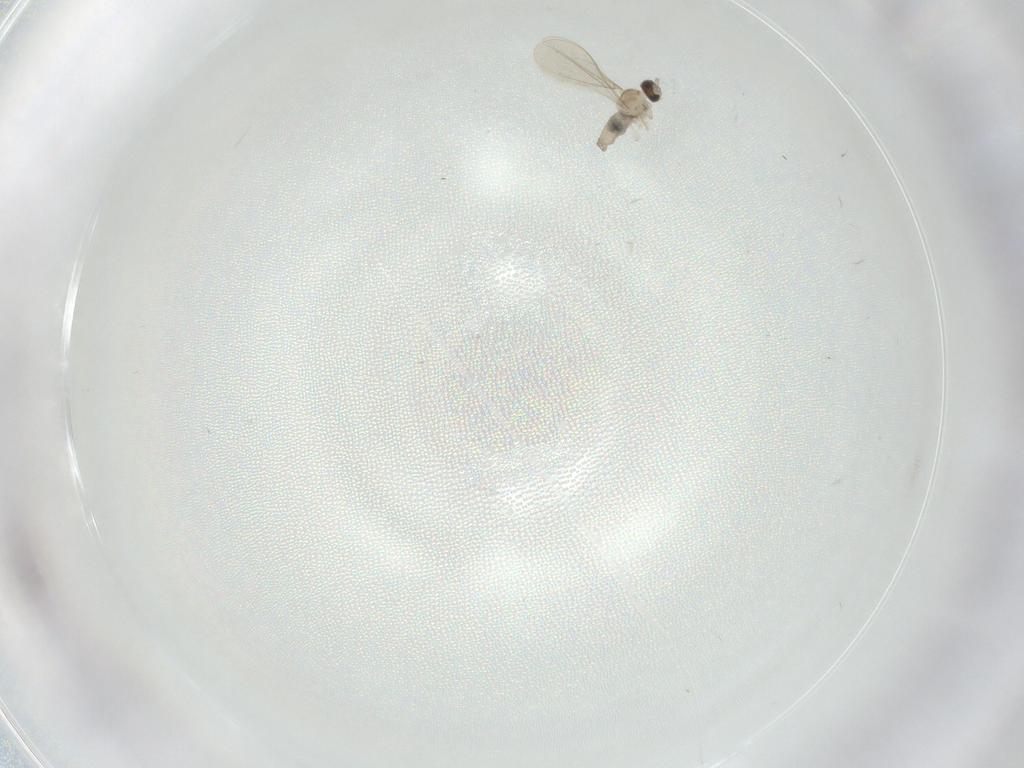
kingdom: Animalia
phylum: Arthropoda
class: Insecta
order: Diptera
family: Cecidomyiidae
